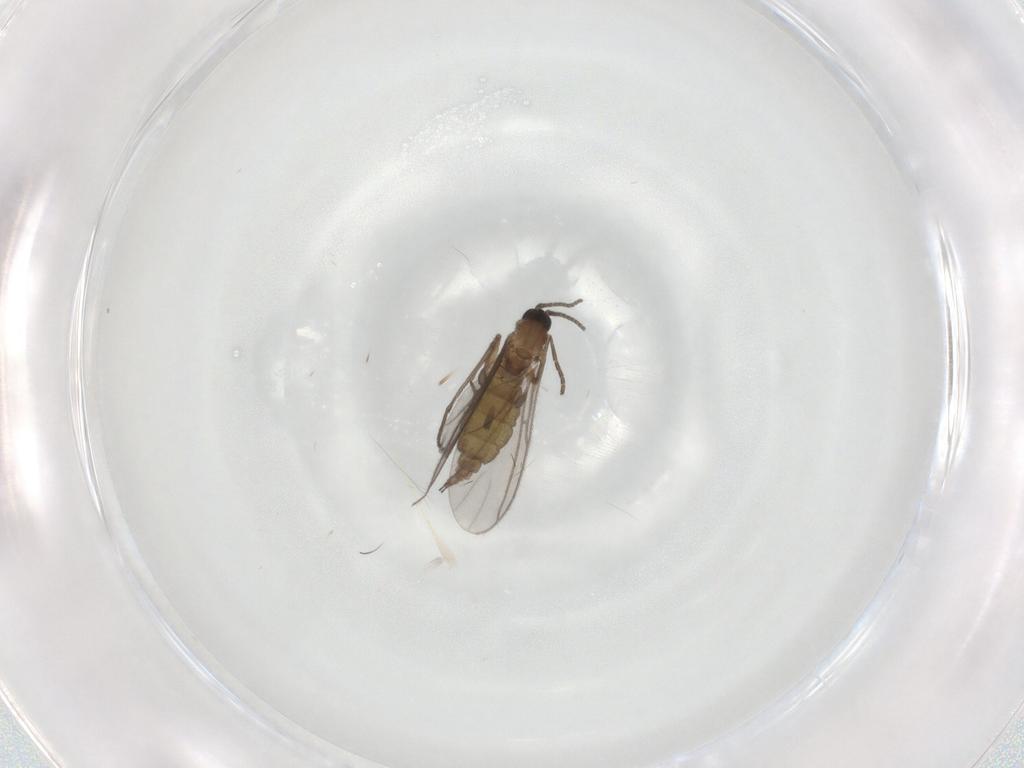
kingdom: Animalia
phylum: Arthropoda
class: Insecta
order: Diptera
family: Sciaridae
